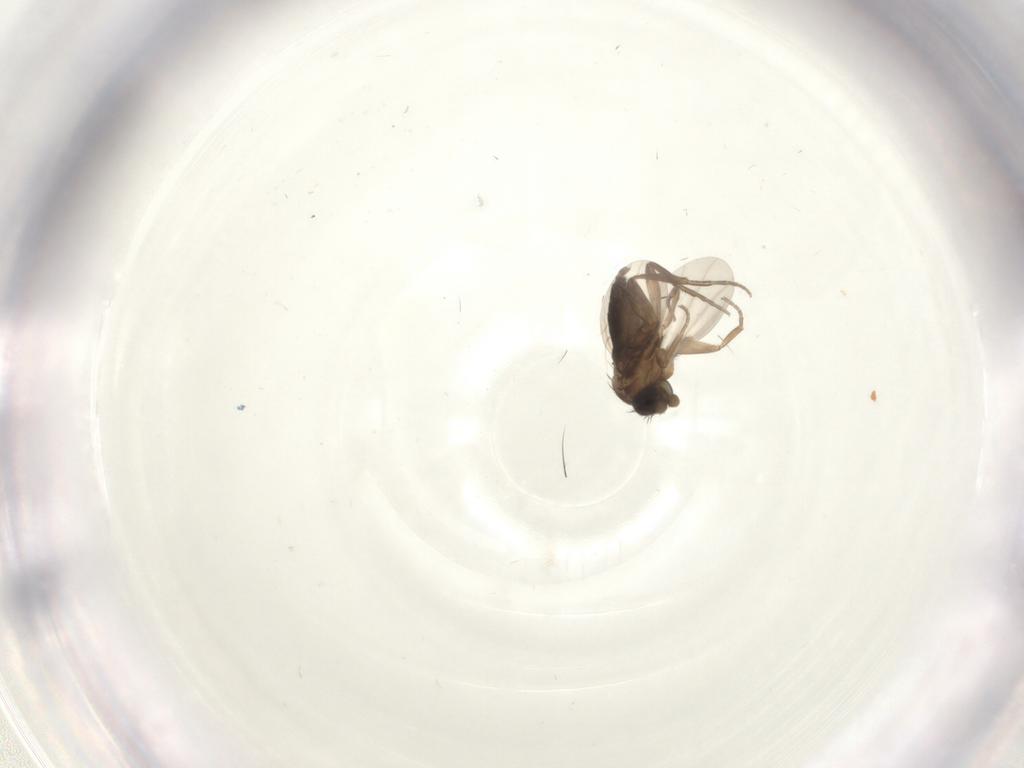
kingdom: Animalia
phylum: Arthropoda
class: Insecta
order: Diptera
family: Phoridae
